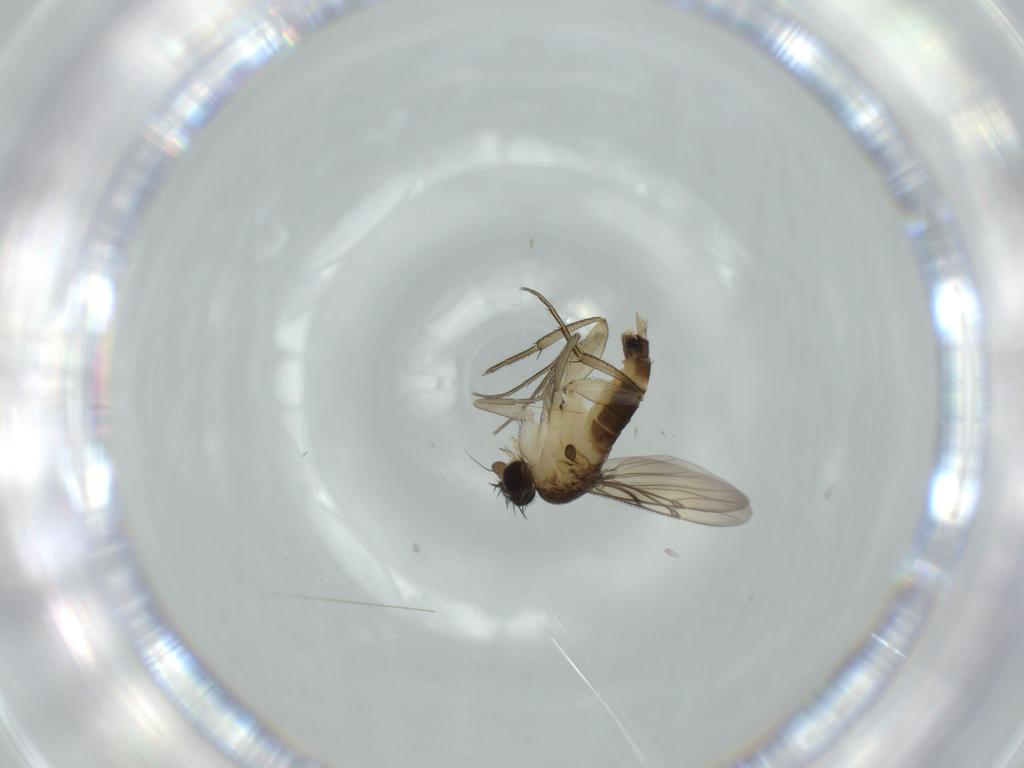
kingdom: Animalia
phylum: Arthropoda
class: Insecta
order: Diptera
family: Phoridae
